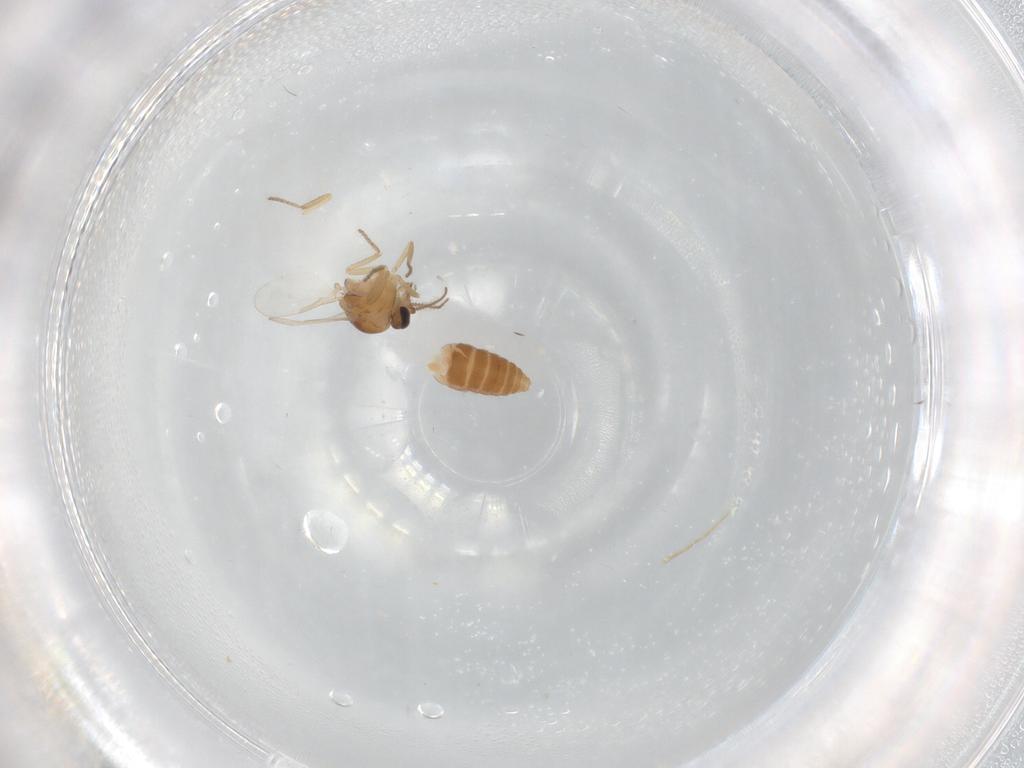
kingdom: Animalia
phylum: Arthropoda
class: Insecta
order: Diptera
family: Ceratopogonidae
